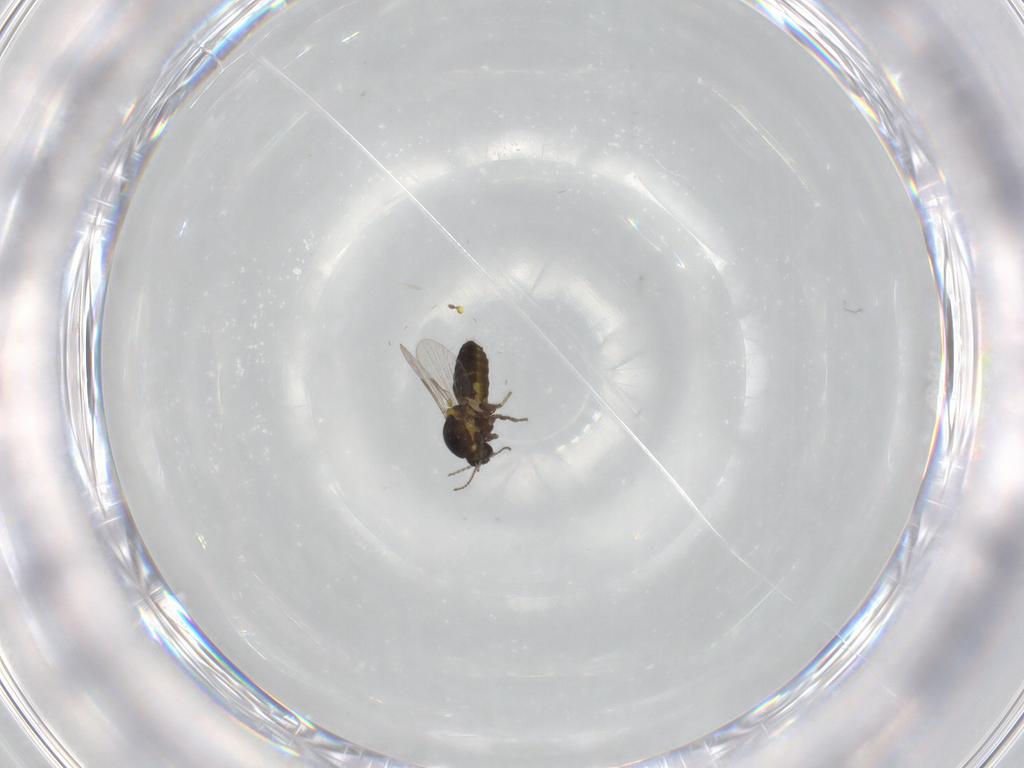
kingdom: Animalia
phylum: Arthropoda
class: Insecta
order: Diptera
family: Ceratopogonidae
